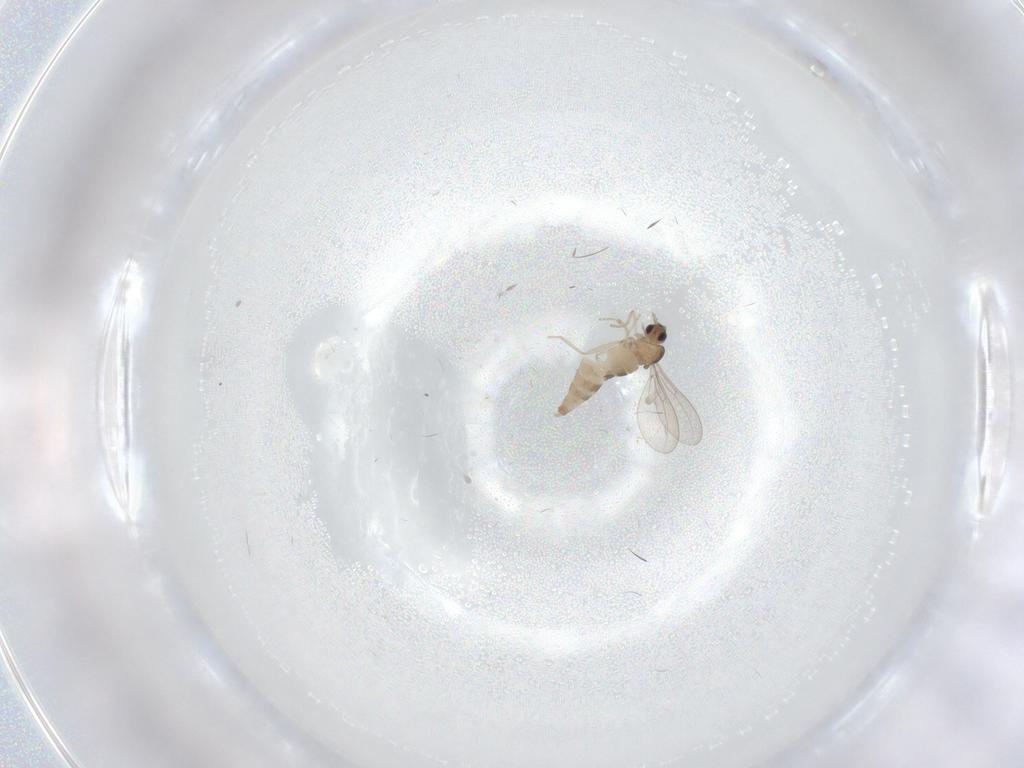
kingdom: Animalia
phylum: Arthropoda
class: Insecta
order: Diptera
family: Cecidomyiidae
